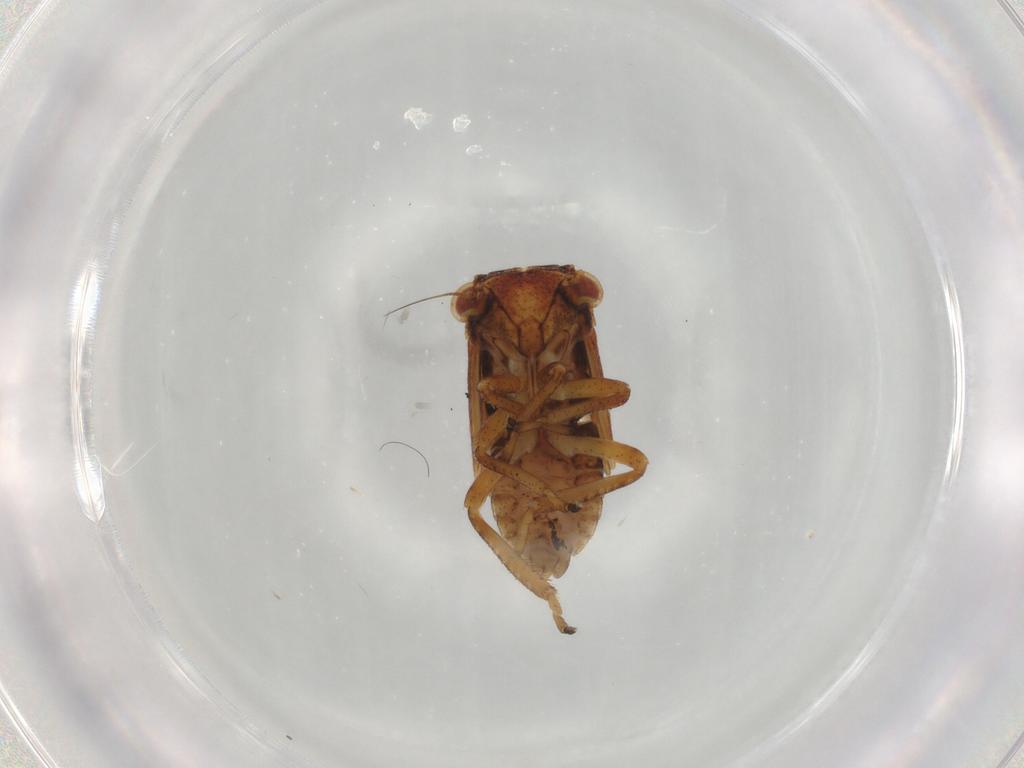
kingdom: Animalia
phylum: Arthropoda
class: Insecta
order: Hemiptera
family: Cicadellidae
